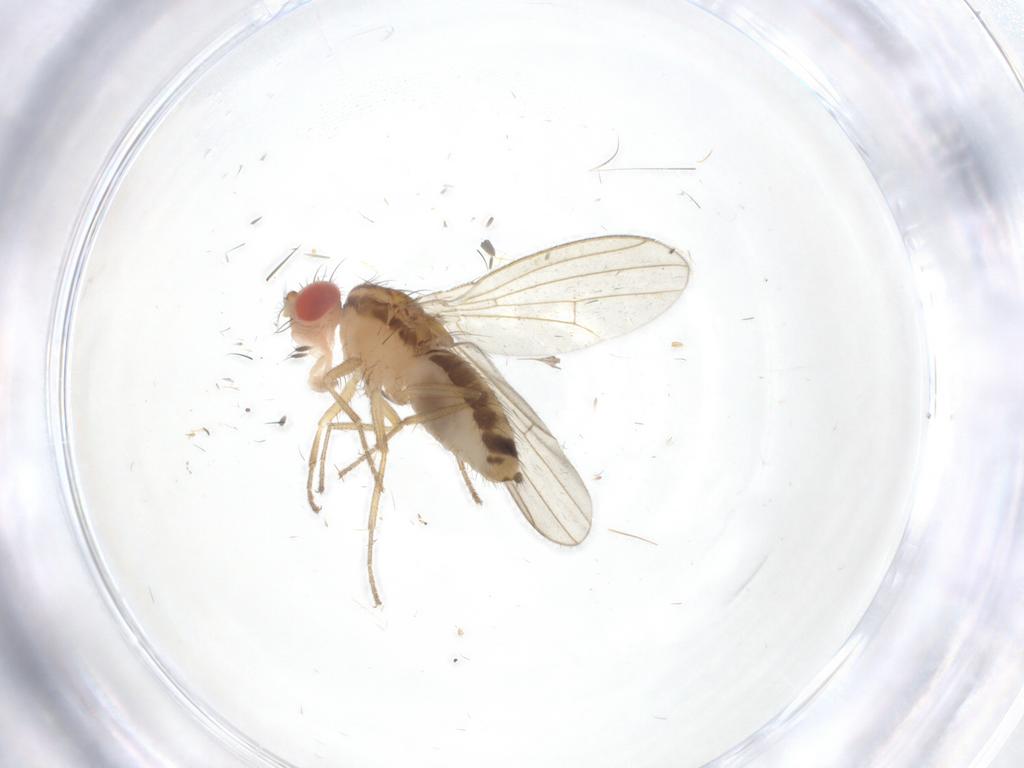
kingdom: Animalia
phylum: Arthropoda
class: Insecta
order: Diptera
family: Drosophilidae
